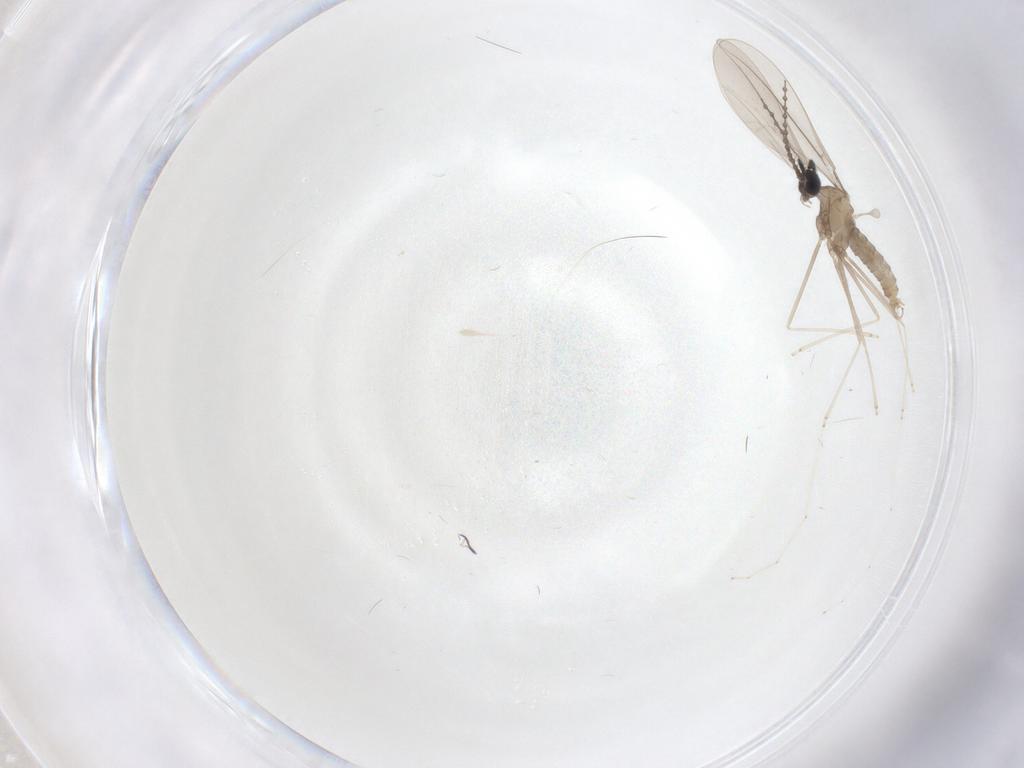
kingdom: Animalia
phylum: Arthropoda
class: Insecta
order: Diptera
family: Cecidomyiidae
